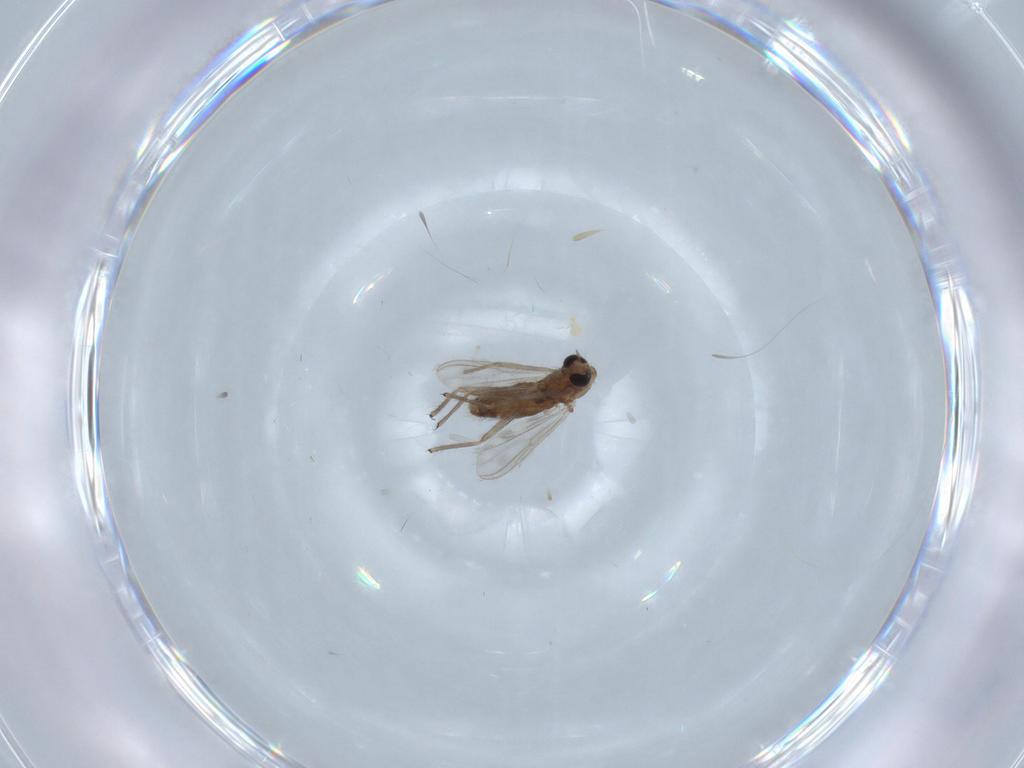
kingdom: Animalia
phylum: Arthropoda
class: Insecta
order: Diptera
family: Chironomidae
